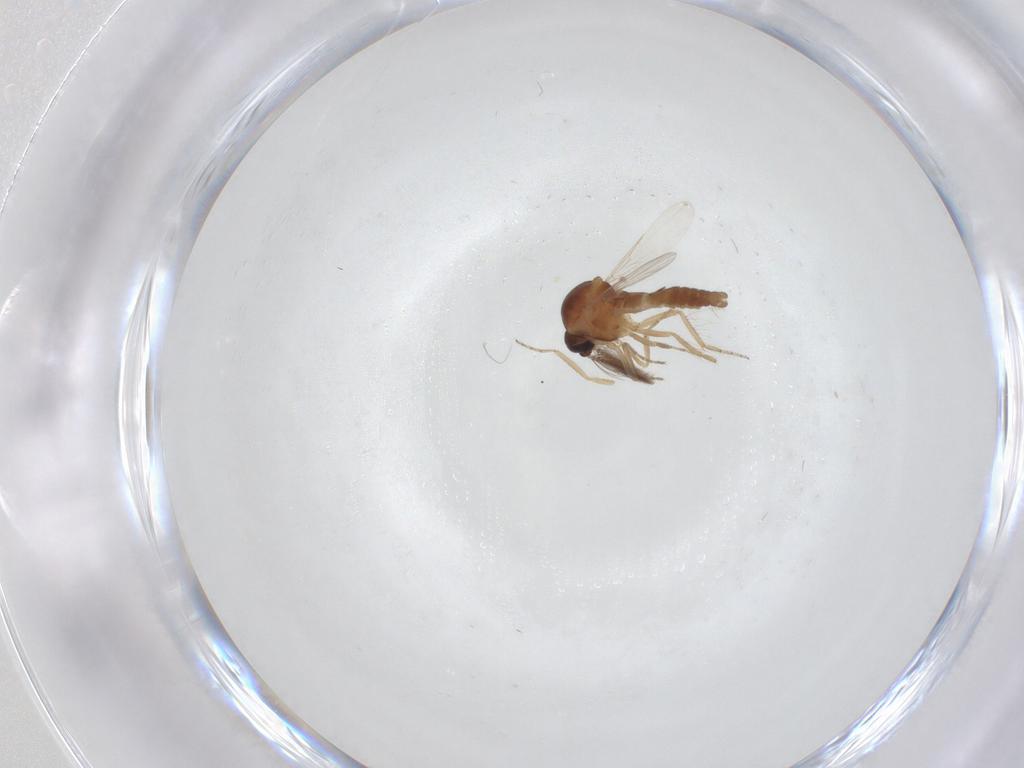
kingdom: Animalia
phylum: Arthropoda
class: Insecta
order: Diptera
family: Ceratopogonidae
